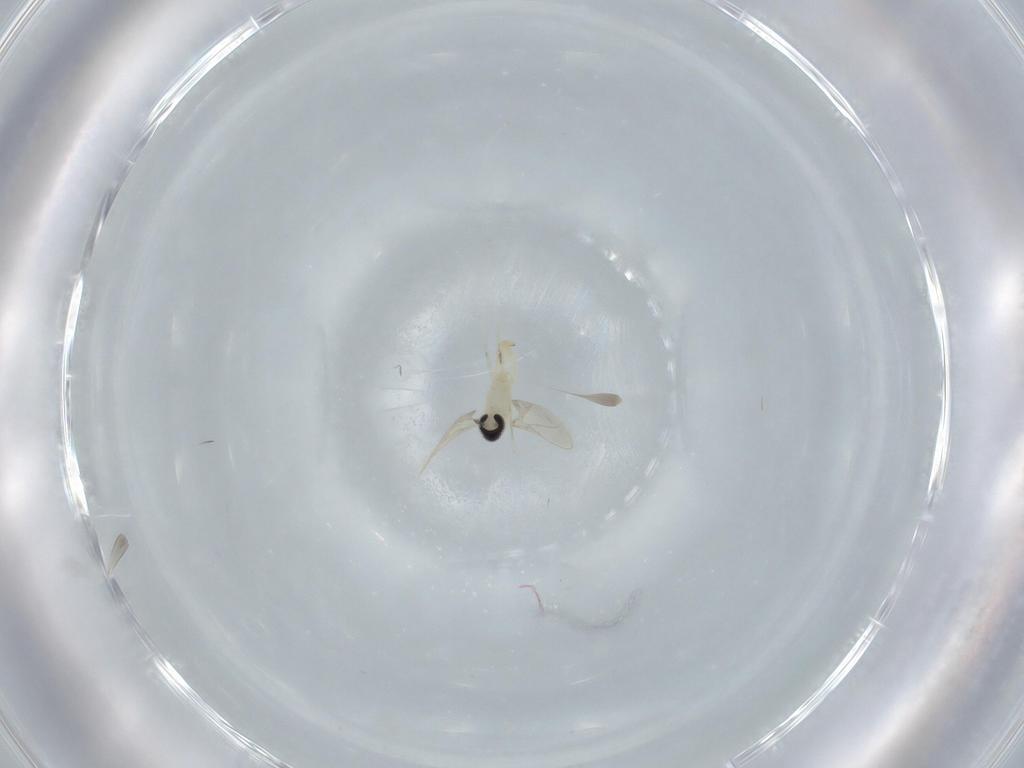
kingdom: Animalia
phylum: Arthropoda
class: Insecta
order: Diptera
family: Cecidomyiidae
